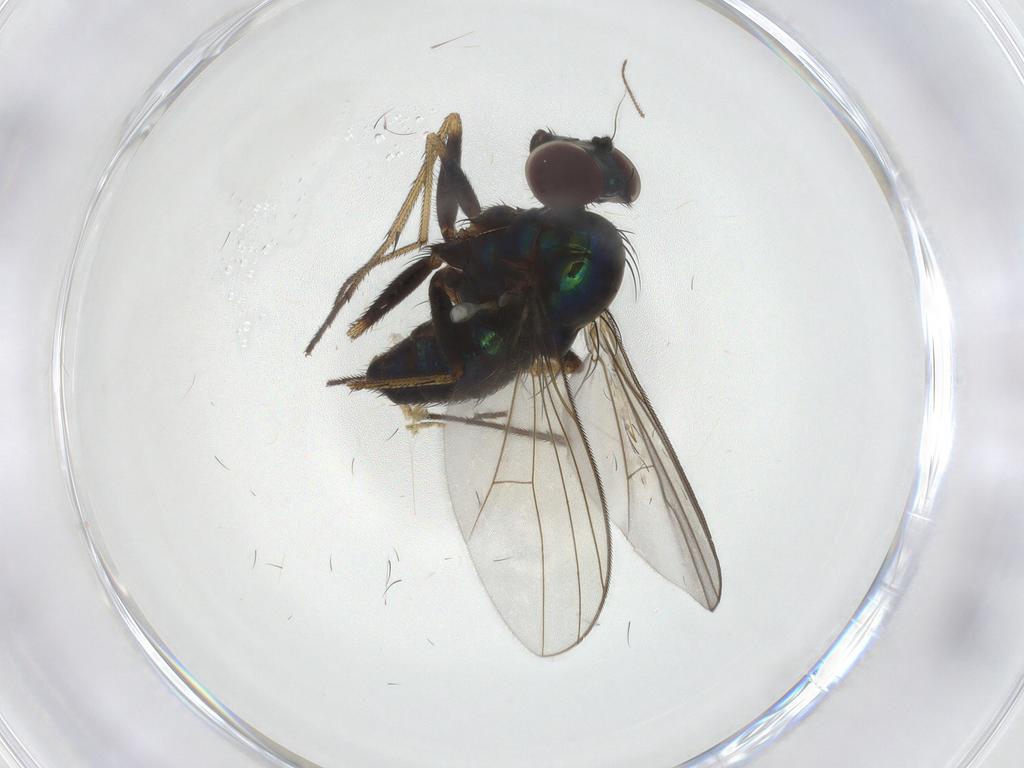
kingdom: Animalia
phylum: Arthropoda
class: Insecta
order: Diptera
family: Dolichopodidae
